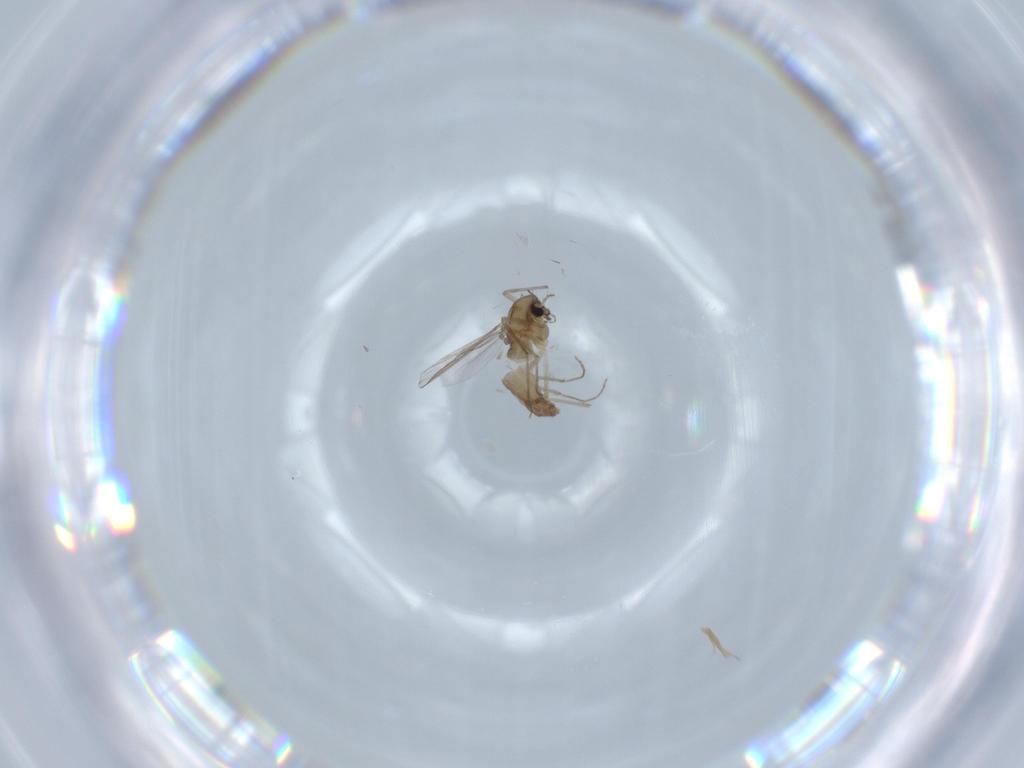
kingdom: Animalia
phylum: Arthropoda
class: Insecta
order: Diptera
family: Chironomidae
